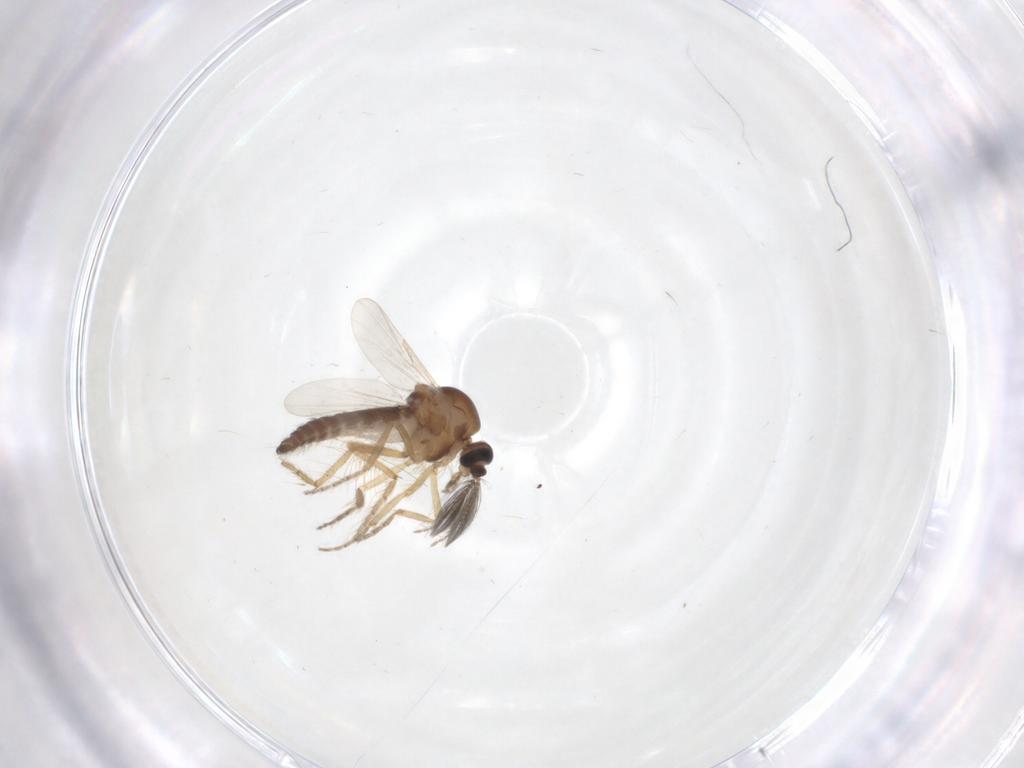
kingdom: Animalia
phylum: Arthropoda
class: Insecta
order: Diptera
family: Ceratopogonidae
